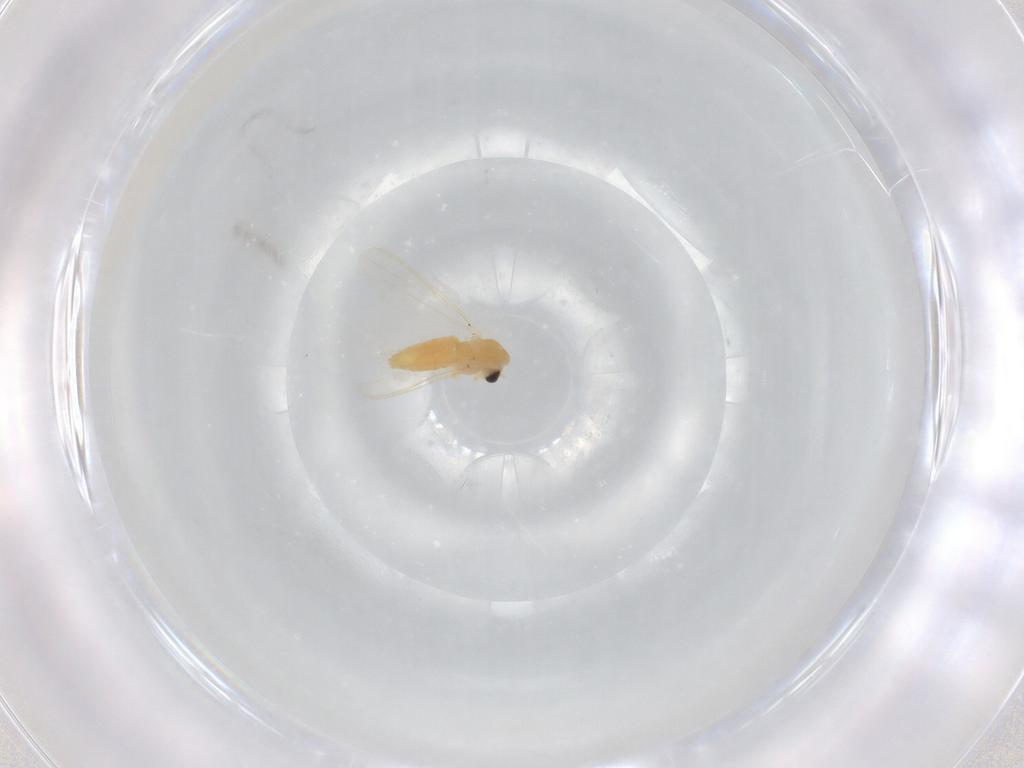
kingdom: Animalia
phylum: Arthropoda
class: Insecta
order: Diptera
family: Chironomidae
